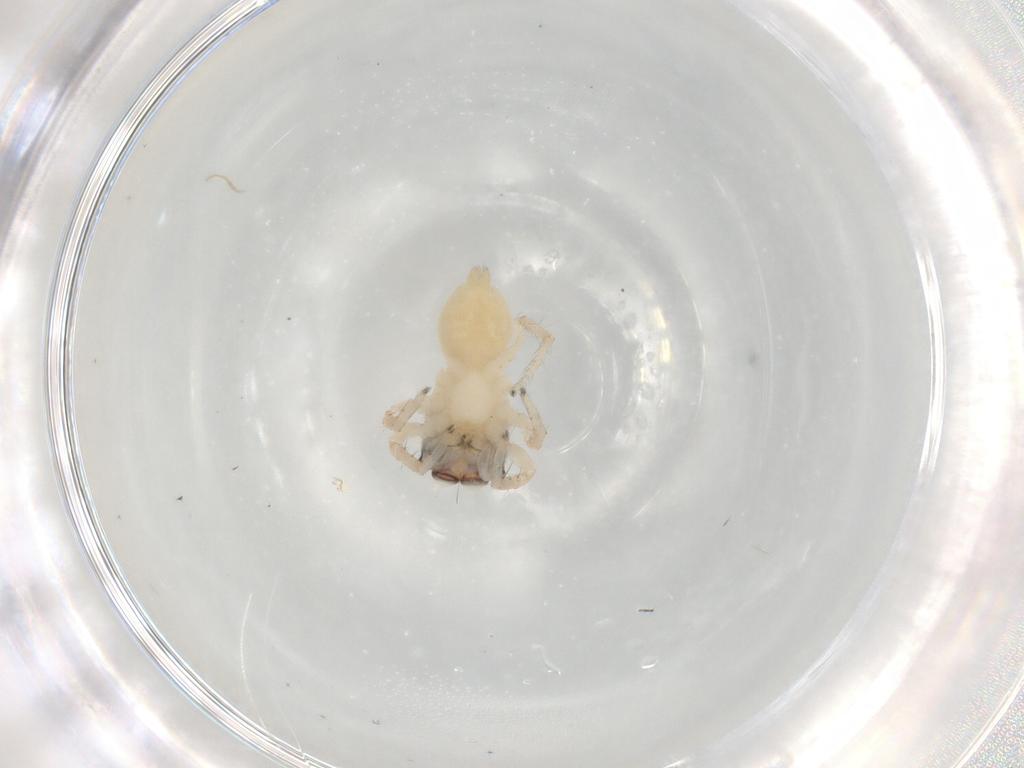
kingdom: Animalia
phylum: Arthropoda
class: Arachnida
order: Araneae
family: Salticidae
